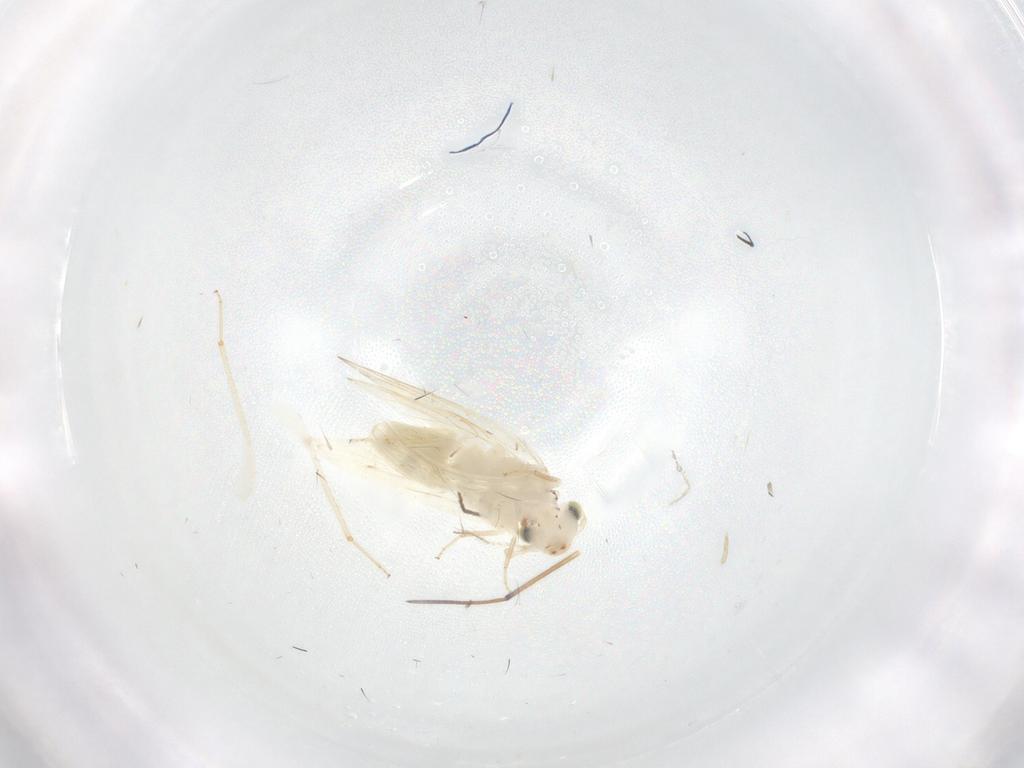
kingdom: Animalia
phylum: Arthropoda
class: Insecta
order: Psocodea
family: Lepidopsocidae
